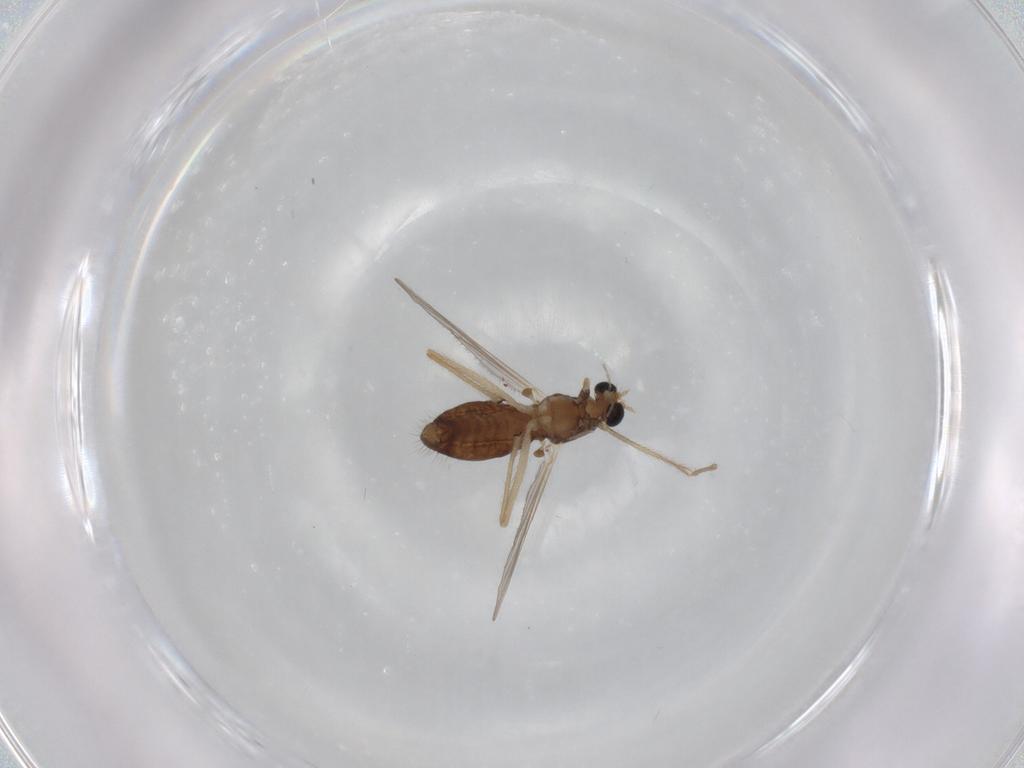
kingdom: Animalia
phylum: Arthropoda
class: Insecta
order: Diptera
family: Chironomidae
